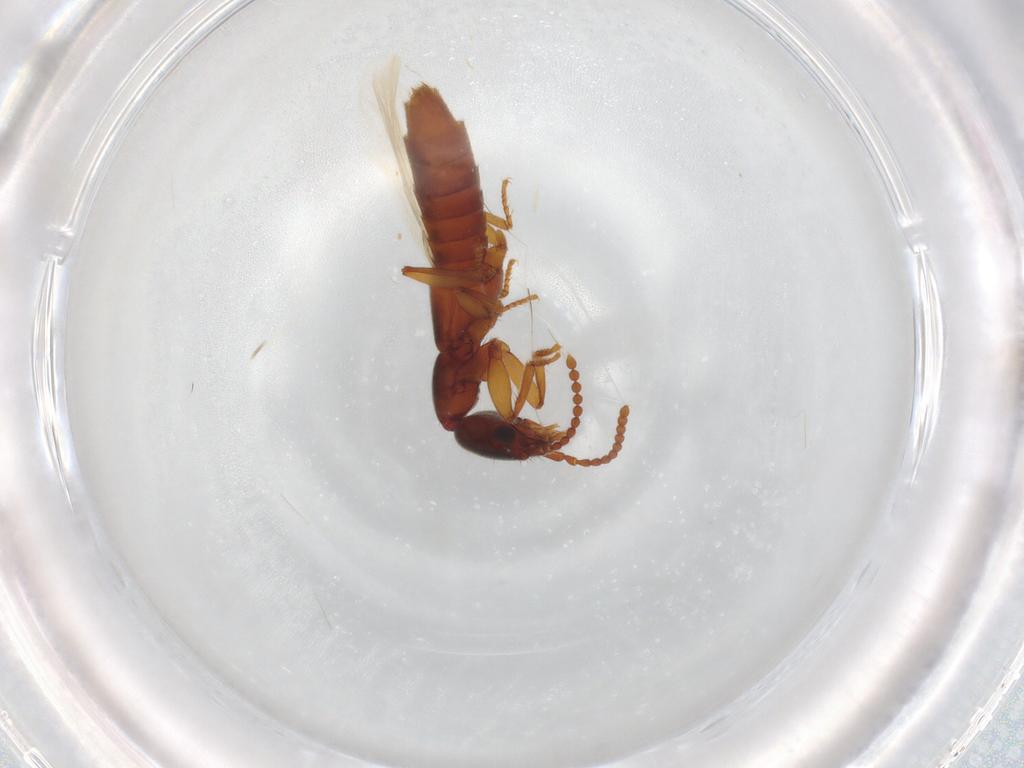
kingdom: Animalia
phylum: Arthropoda
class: Insecta
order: Coleoptera
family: Staphylinidae
